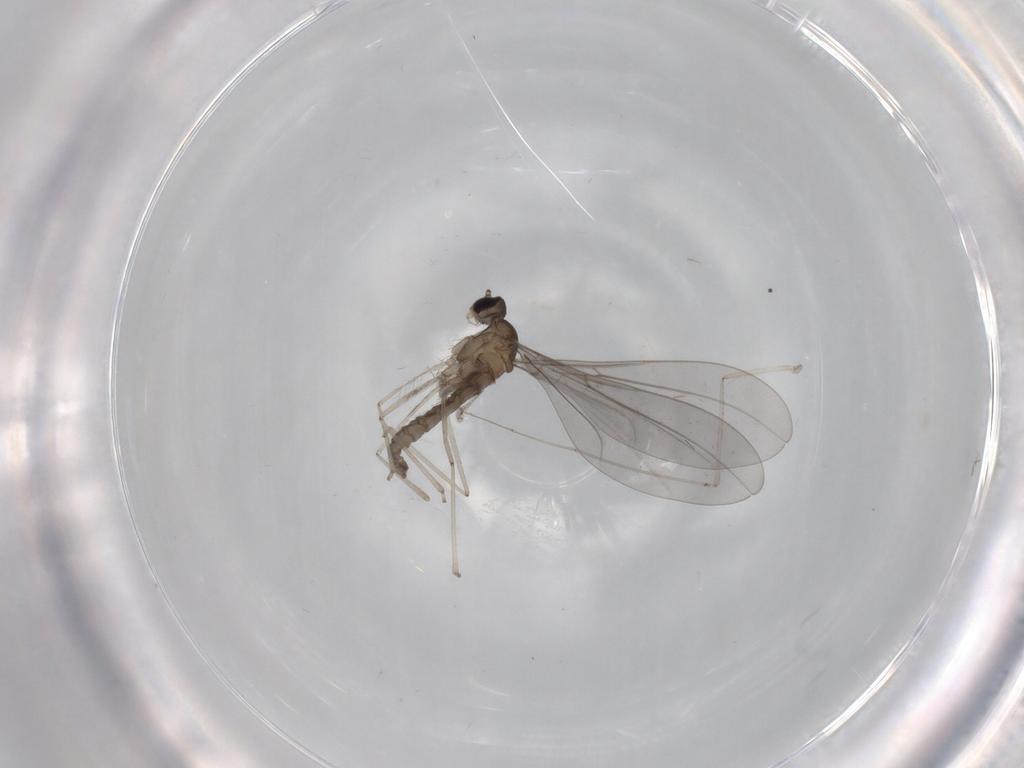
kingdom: Animalia
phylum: Arthropoda
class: Insecta
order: Diptera
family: Cecidomyiidae
